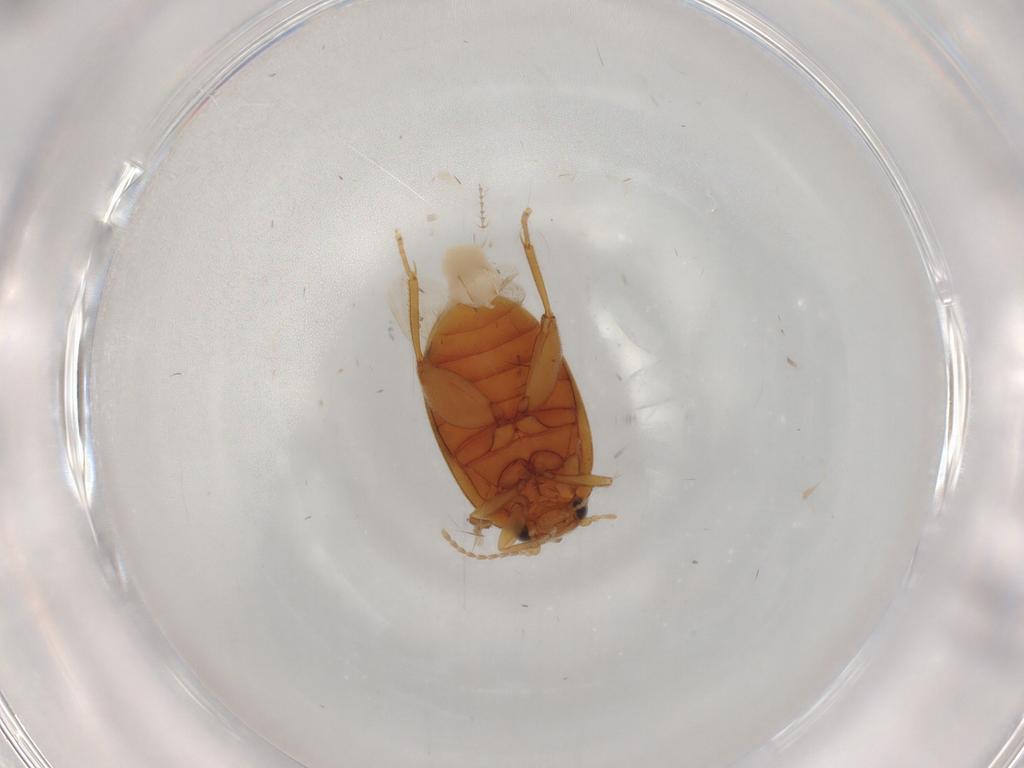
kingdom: Animalia
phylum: Arthropoda
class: Insecta
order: Coleoptera
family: Scirtidae
